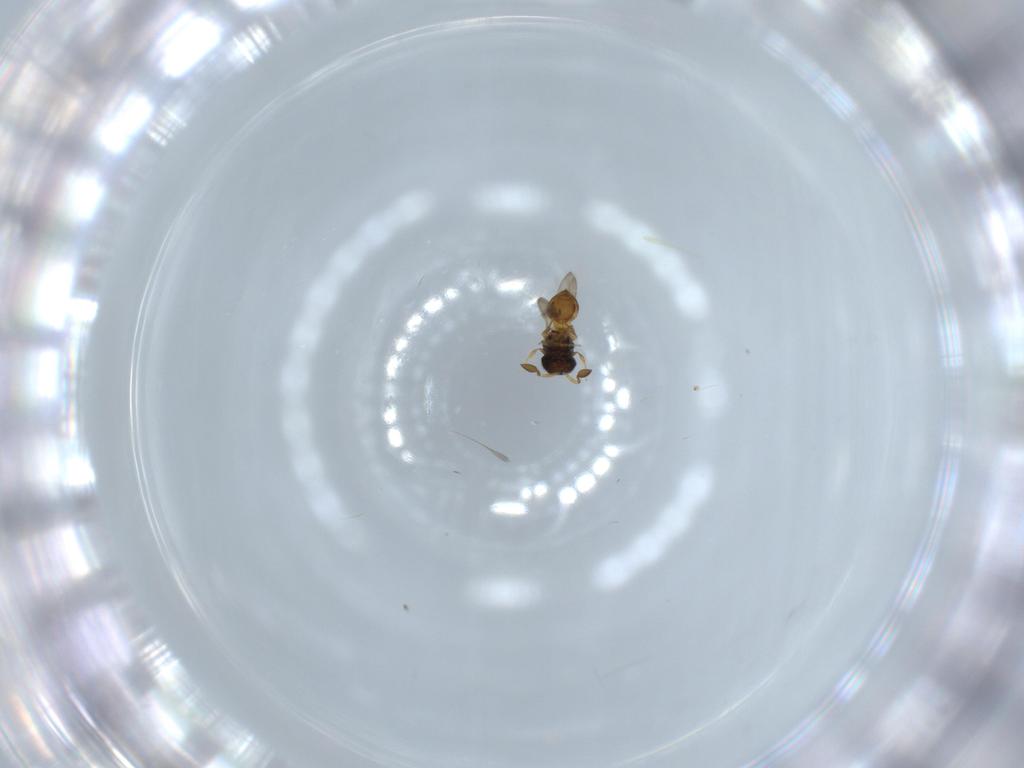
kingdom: Animalia
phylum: Arthropoda
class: Insecta
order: Hymenoptera
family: Scelionidae
